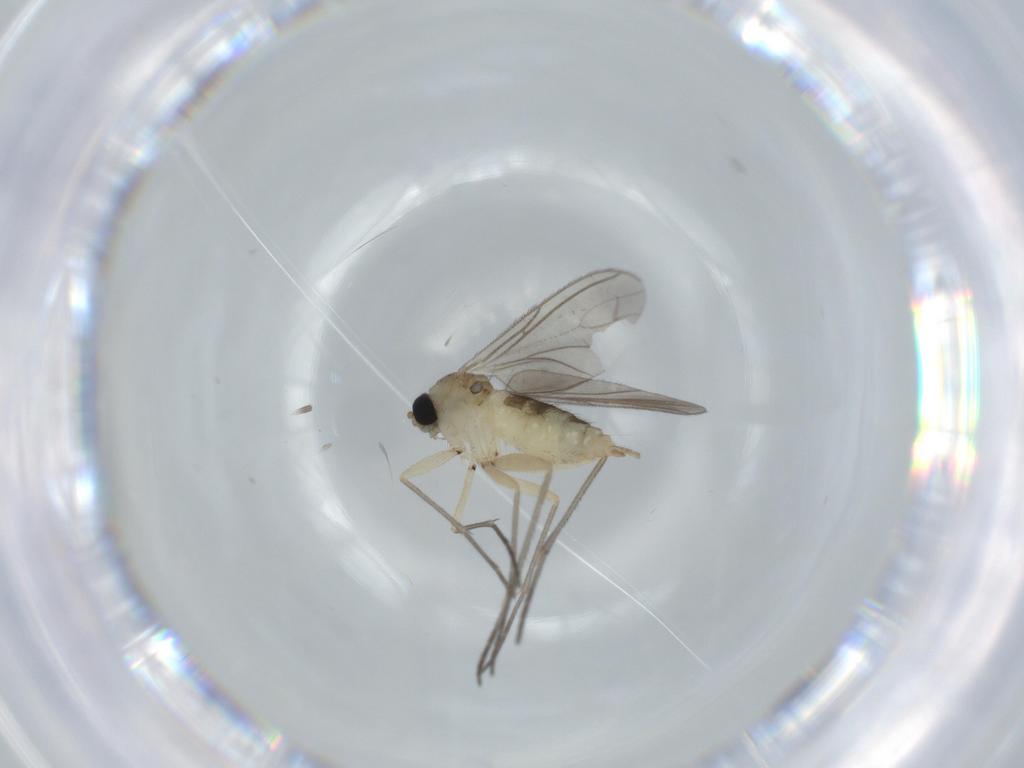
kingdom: Animalia
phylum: Arthropoda
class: Insecta
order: Diptera
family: Sciaridae
